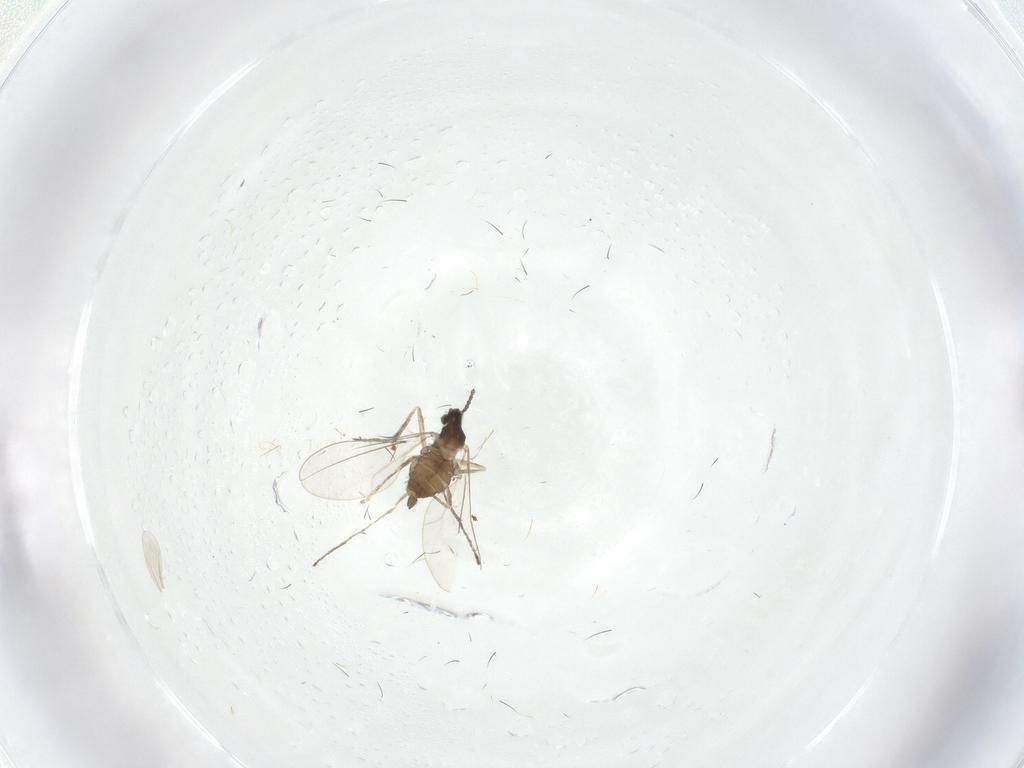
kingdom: Animalia
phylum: Arthropoda
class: Insecta
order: Diptera
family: Cecidomyiidae
